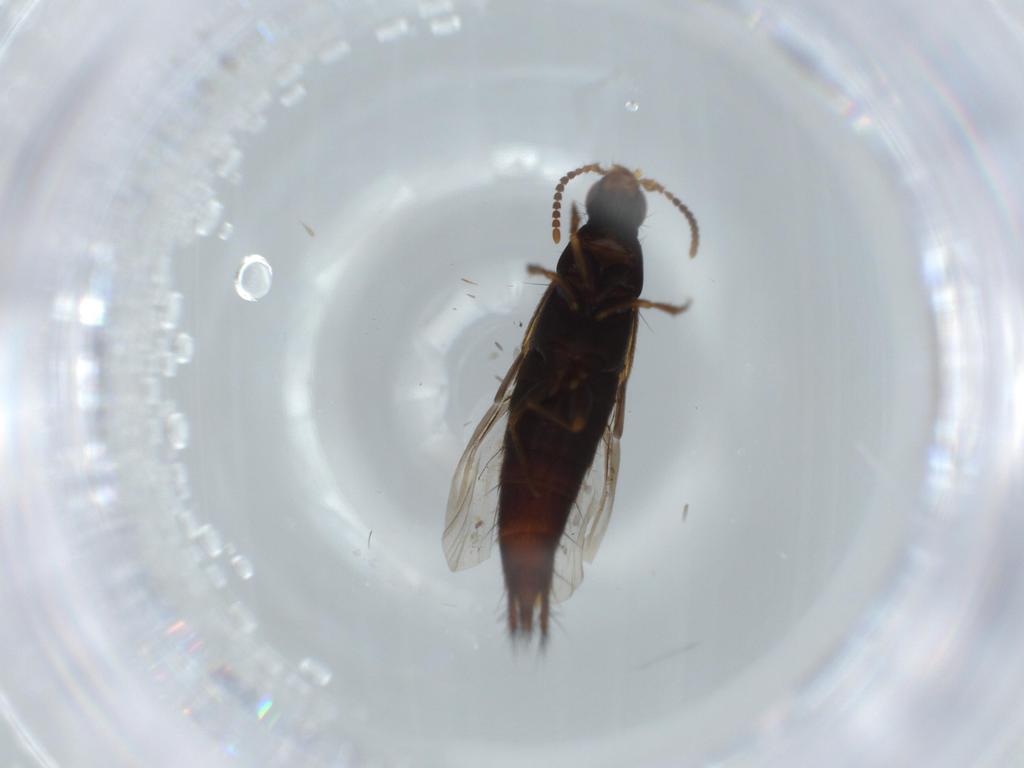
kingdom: Animalia
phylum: Arthropoda
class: Insecta
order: Coleoptera
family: Staphylinidae
